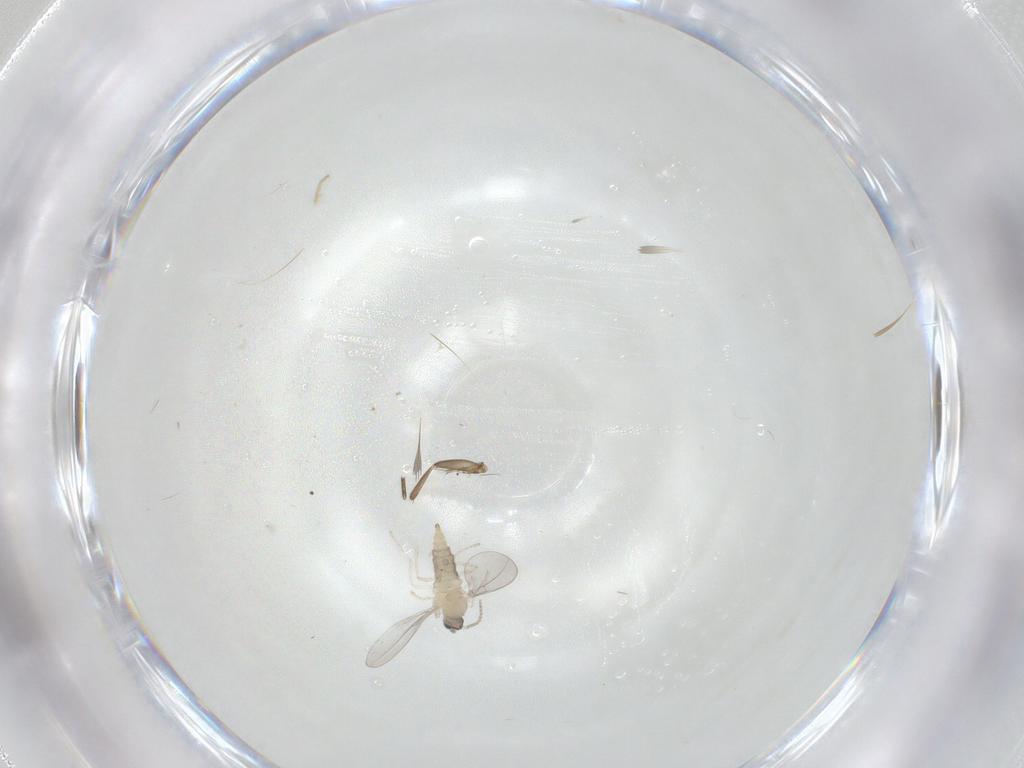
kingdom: Animalia
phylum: Arthropoda
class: Insecta
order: Diptera
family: Cecidomyiidae
